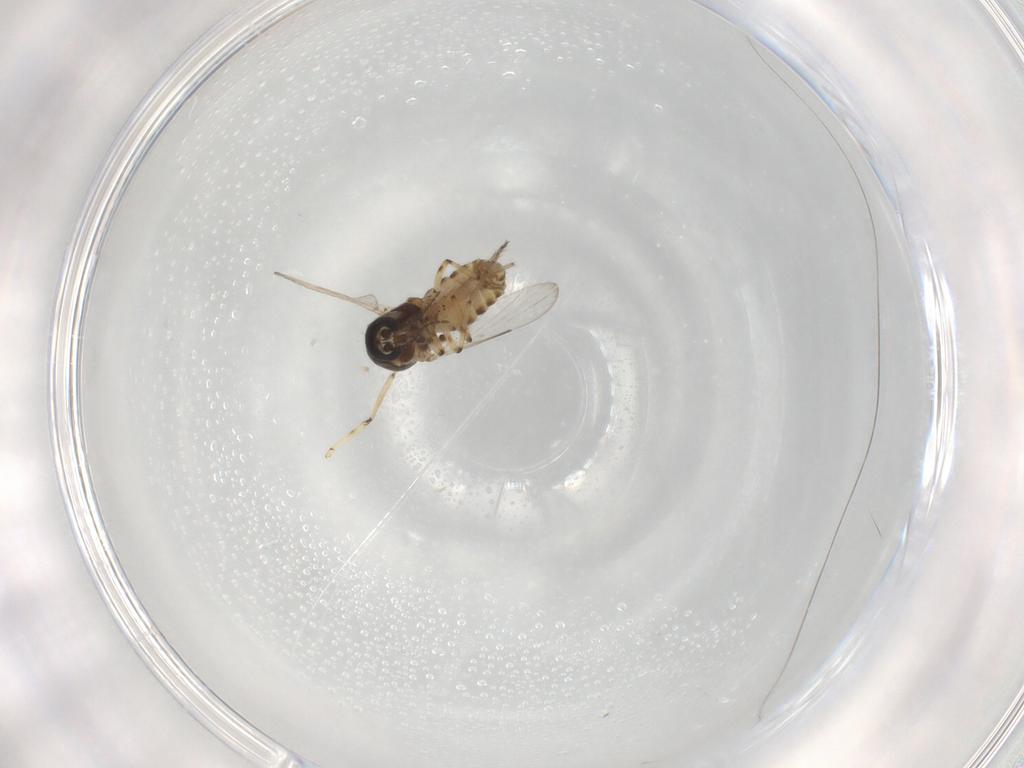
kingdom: Animalia
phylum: Arthropoda
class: Insecta
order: Diptera
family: Ceratopogonidae
